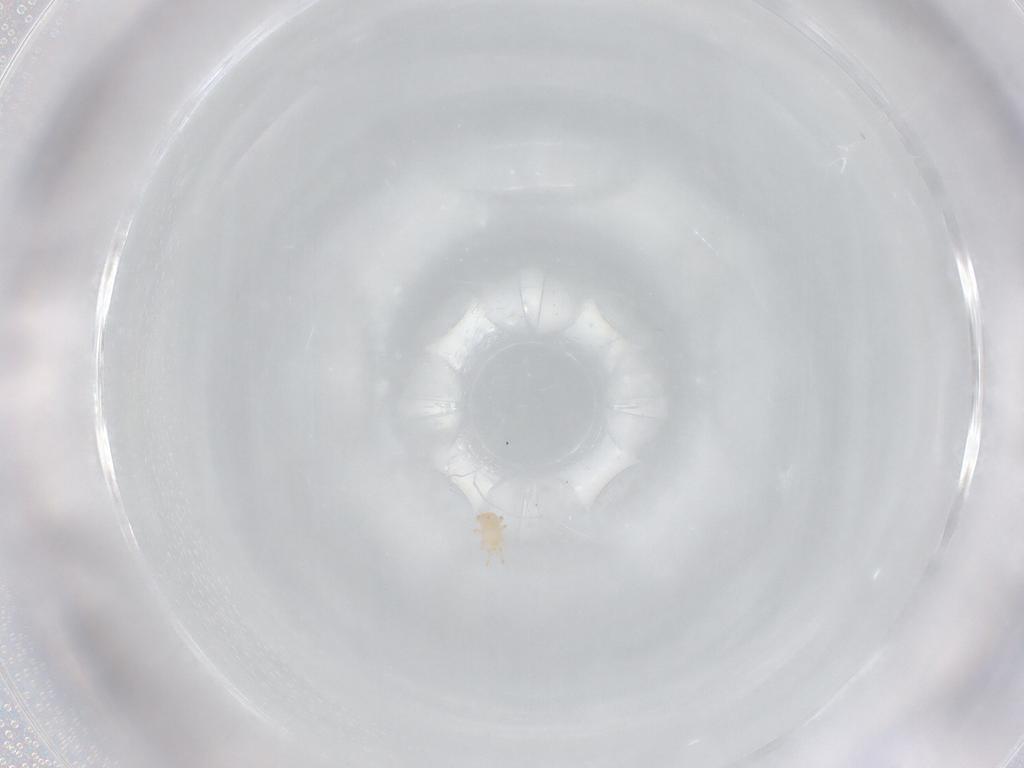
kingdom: Animalia
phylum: Arthropoda
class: Arachnida
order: Mesostigmata
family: Digamasellidae
